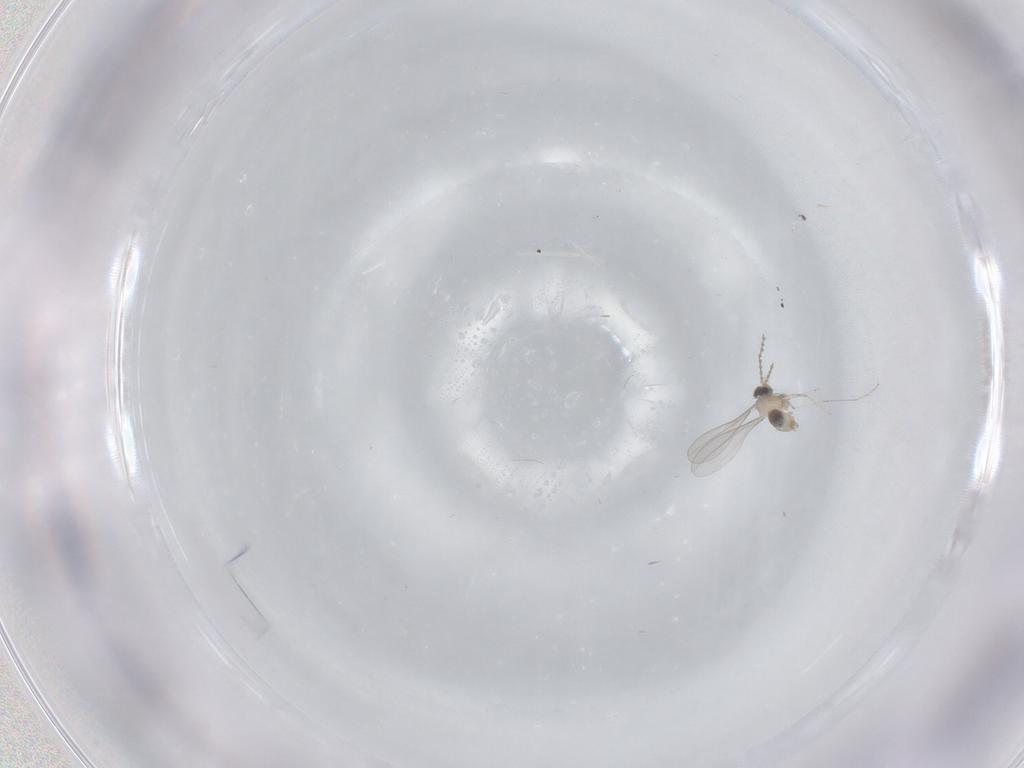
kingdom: Animalia
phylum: Arthropoda
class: Insecta
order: Diptera
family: Cecidomyiidae
